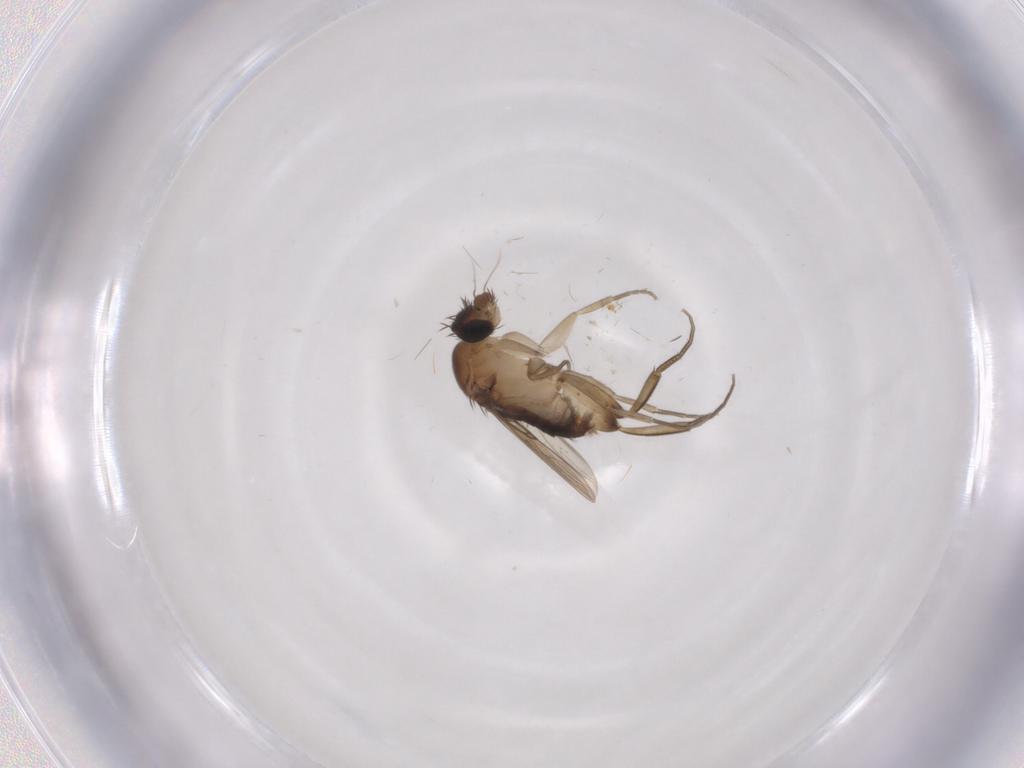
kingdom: Animalia
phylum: Arthropoda
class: Insecta
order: Diptera
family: Phoridae
